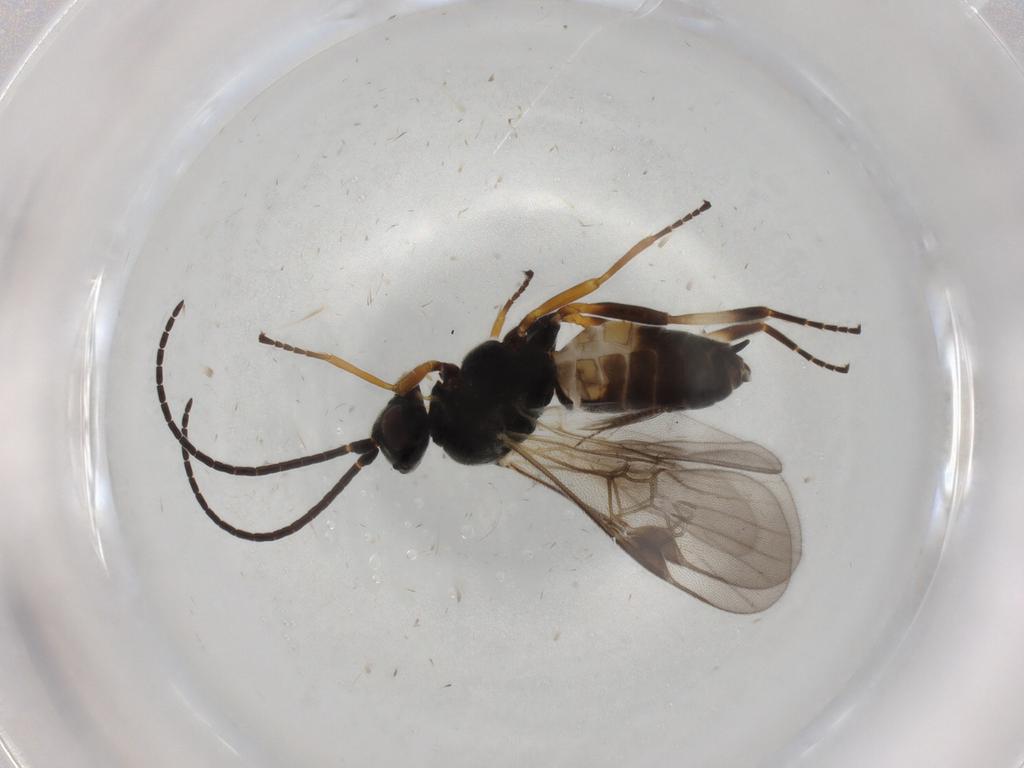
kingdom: Animalia
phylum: Arthropoda
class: Insecta
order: Hymenoptera
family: Braconidae
